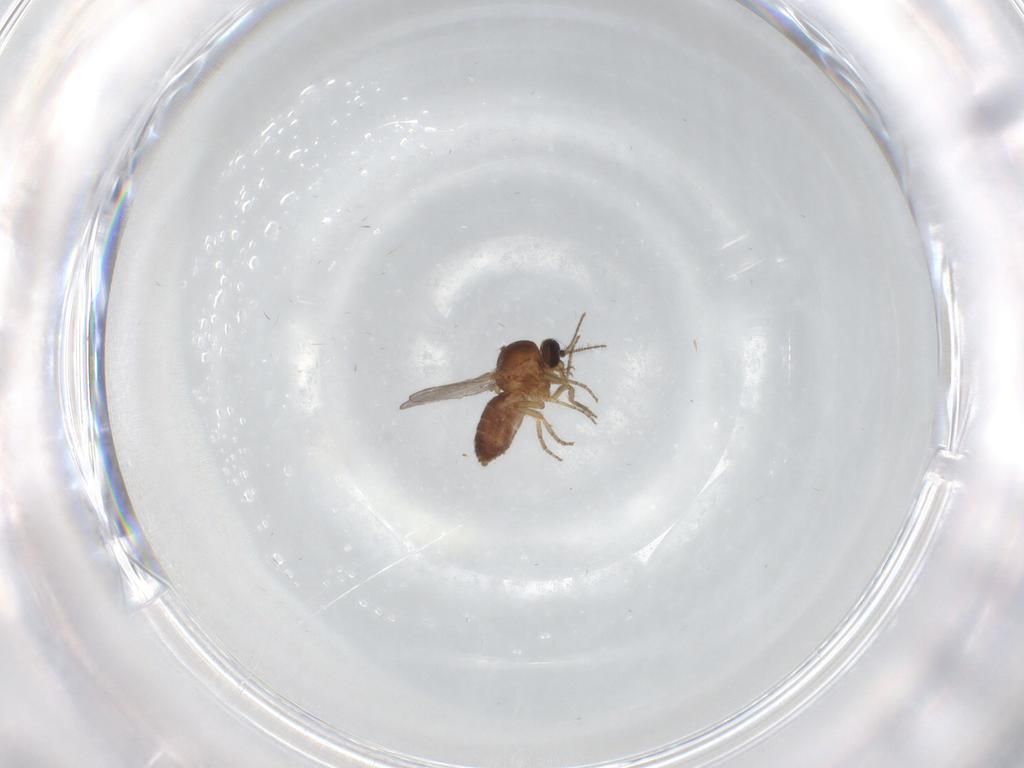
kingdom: Animalia
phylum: Arthropoda
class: Insecta
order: Diptera
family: Ceratopogonidae
